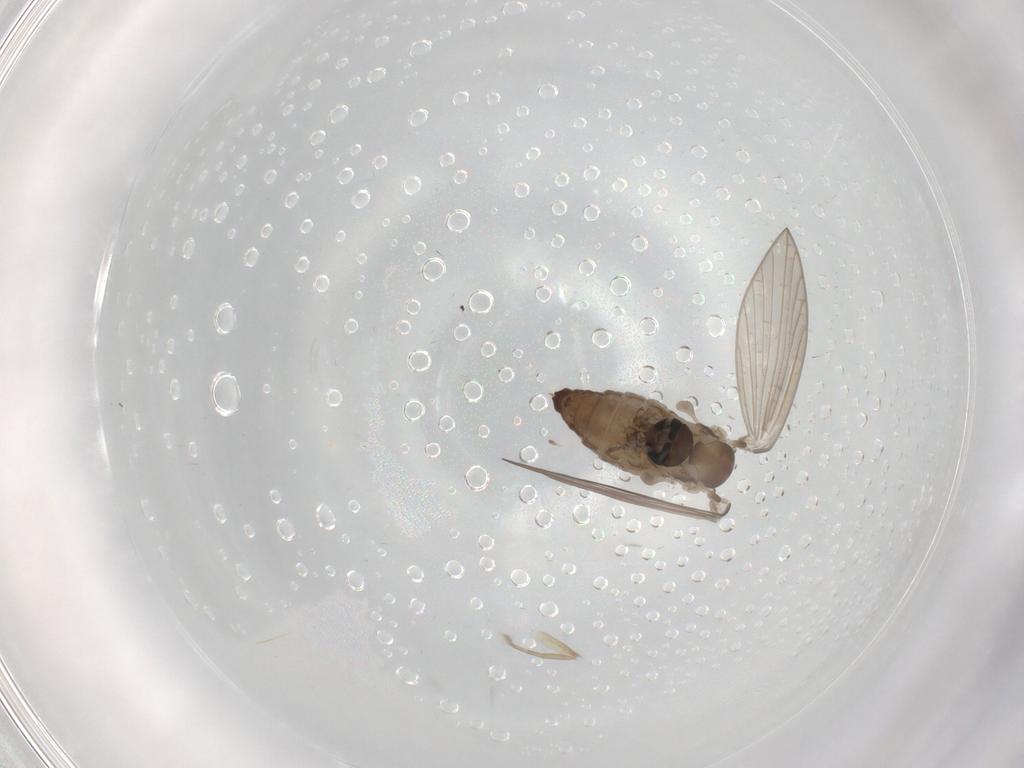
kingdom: Animalia
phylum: Arthropoda
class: Insecta
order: Diptera
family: Psychodidae
